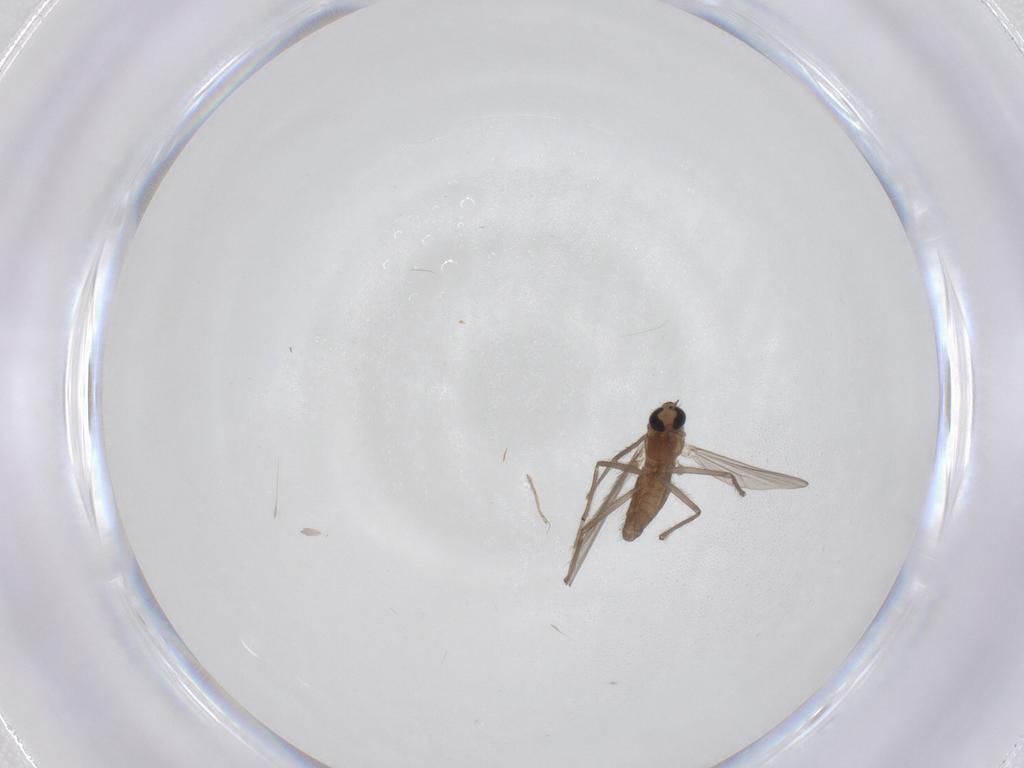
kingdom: Animalia
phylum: Arthropoda
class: Insecta
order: Diptera
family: Chironomidae
